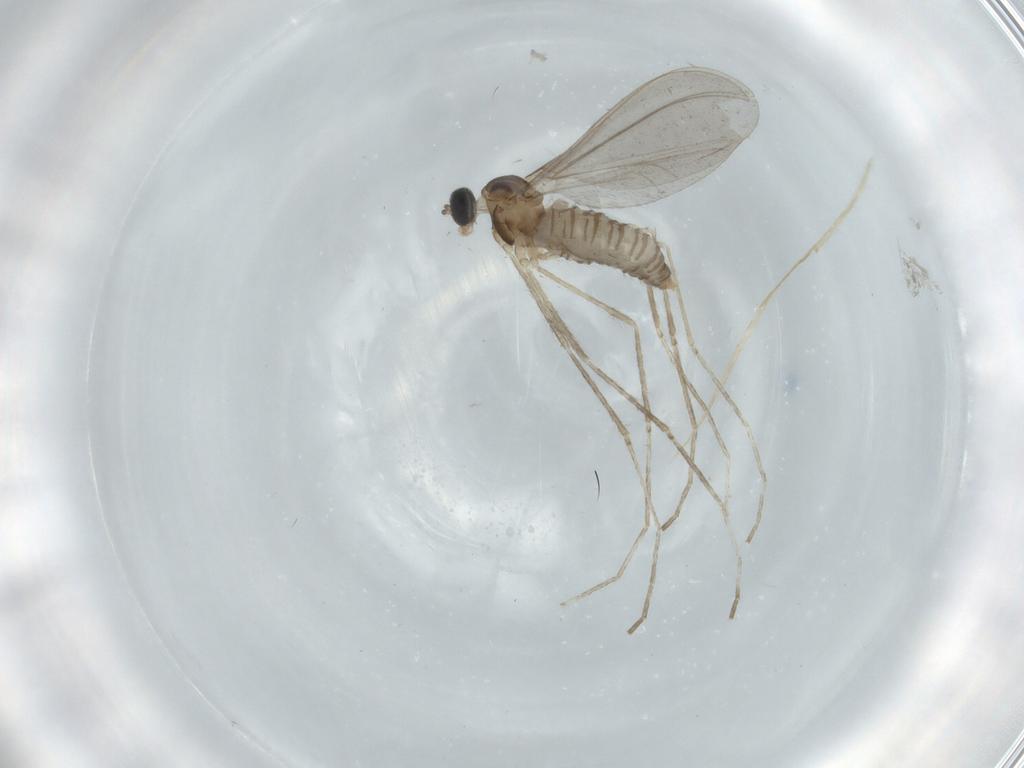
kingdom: Animalia
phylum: Arthropoda
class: Insecta
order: Diptera
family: Cecidomyiidae
